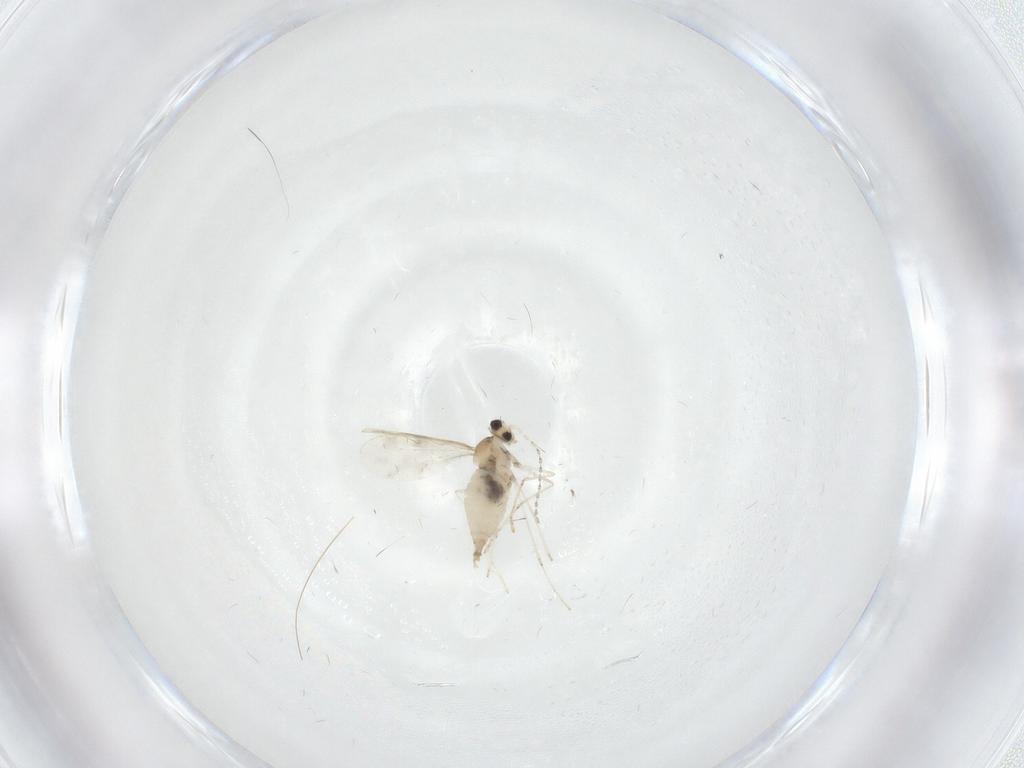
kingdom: Animalia
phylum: Arthropoda
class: Insecta
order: Diptera
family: Cecidomyiidae
